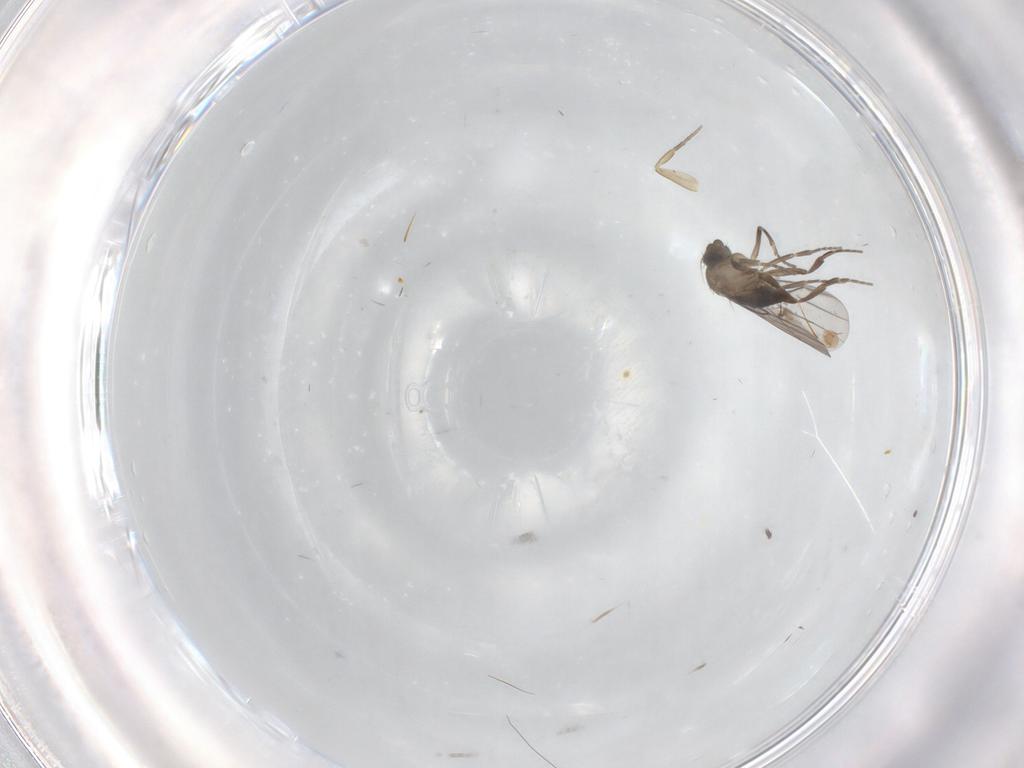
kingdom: Animalia
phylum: Arthropoda
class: Insecta
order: Diptera
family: Phoridae
